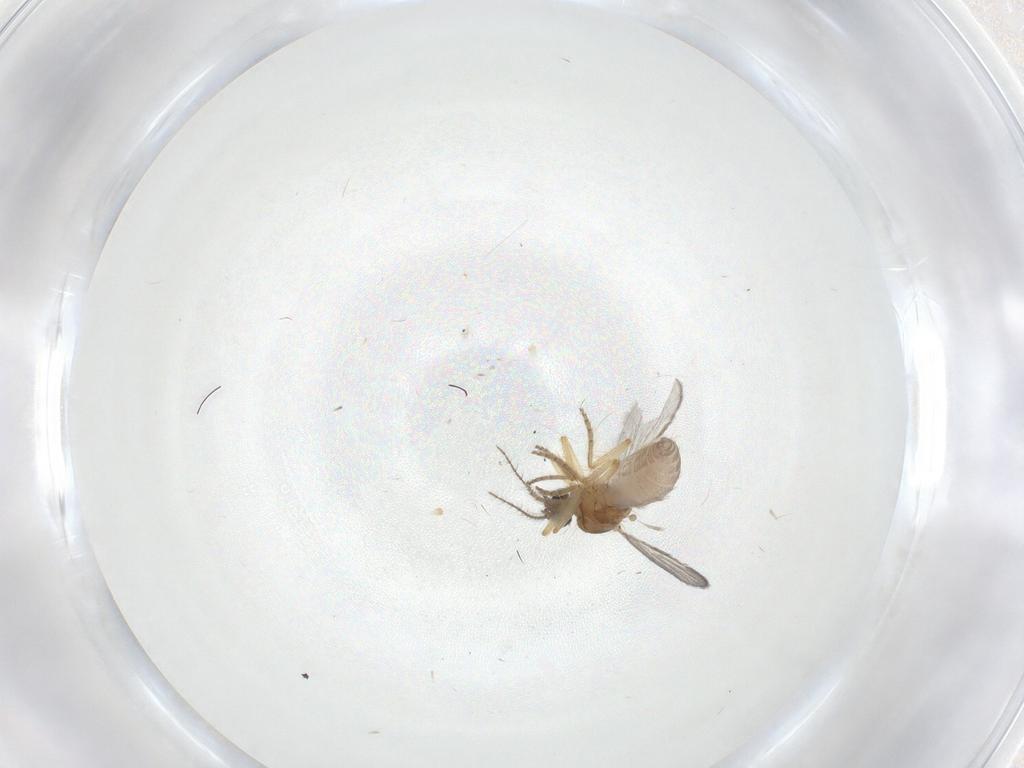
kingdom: Animalia
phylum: Arthropoda
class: Insecta
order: Diptera
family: Ceratopogonidae
